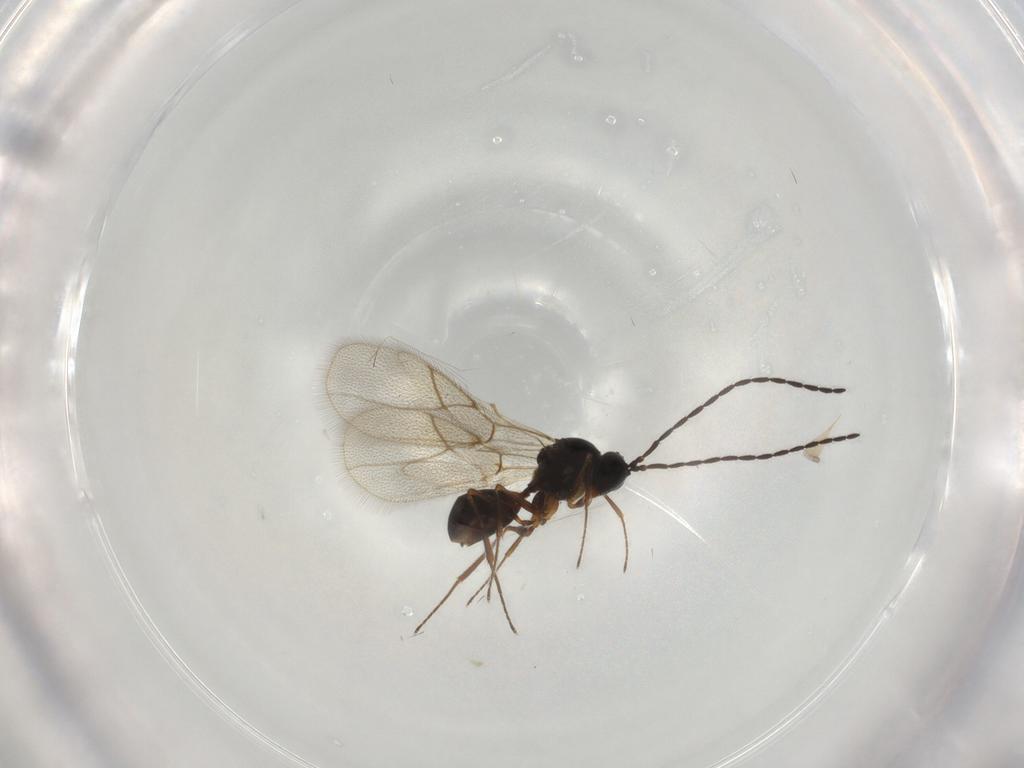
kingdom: Animalia
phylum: Arthropoda
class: Insecta
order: Hymenoptera
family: Figitidae
